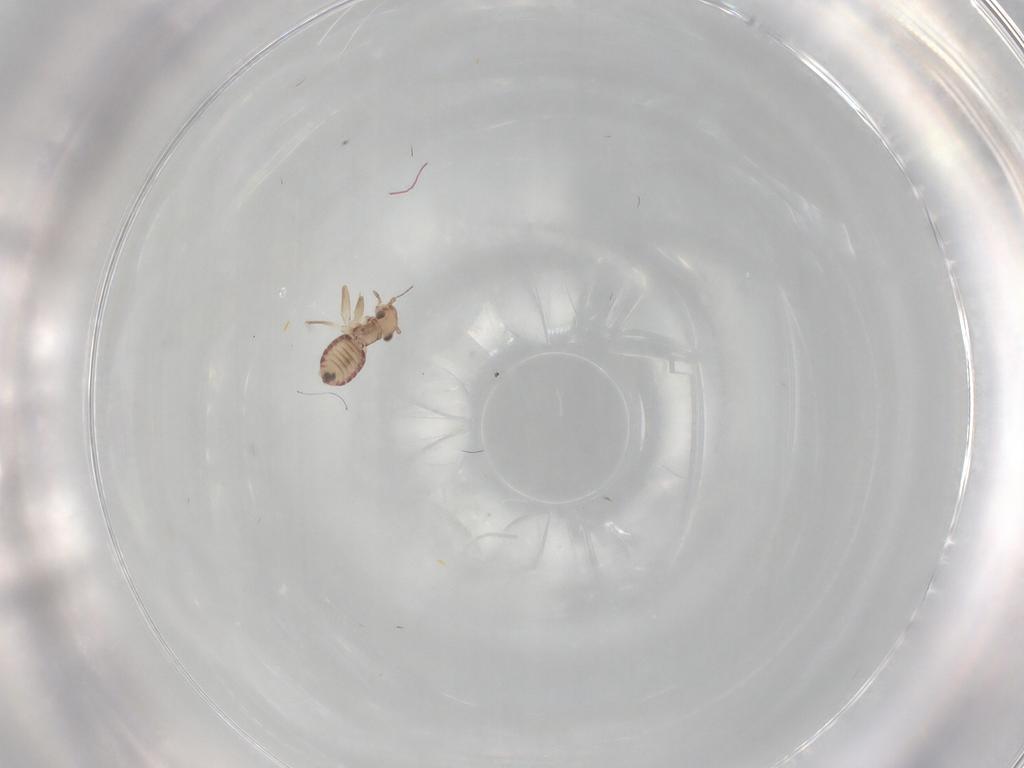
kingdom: Animalia
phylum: Arthropoda
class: Insecta
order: Psocodea
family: Lepidopsocidae
